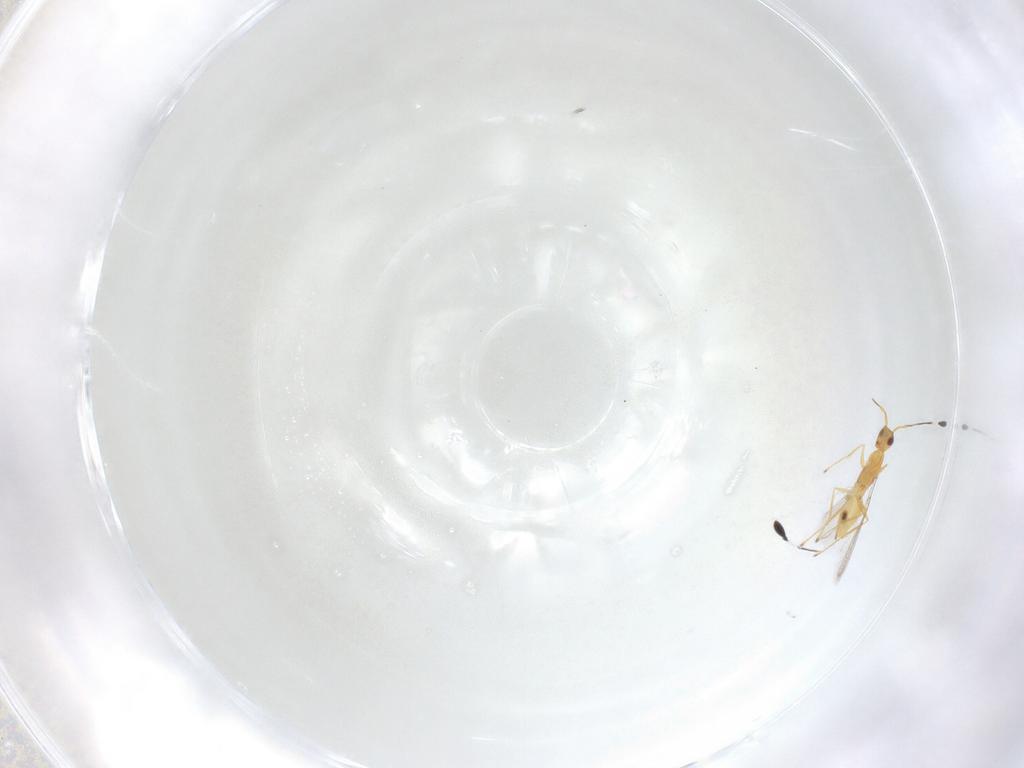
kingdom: Animalia
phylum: Arthropoda
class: Insecta
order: Hymenoptera
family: Mymaridae
